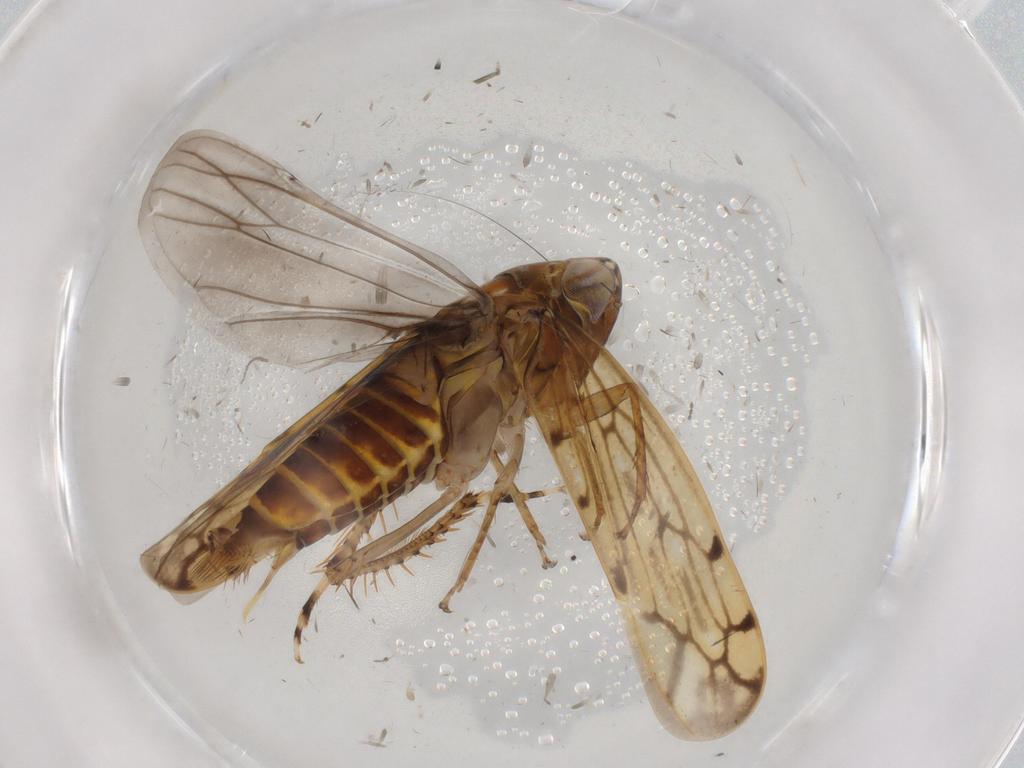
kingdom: Animalia
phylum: Arthropoda
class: Insecta
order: Hemiptera
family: Cicadellidae
